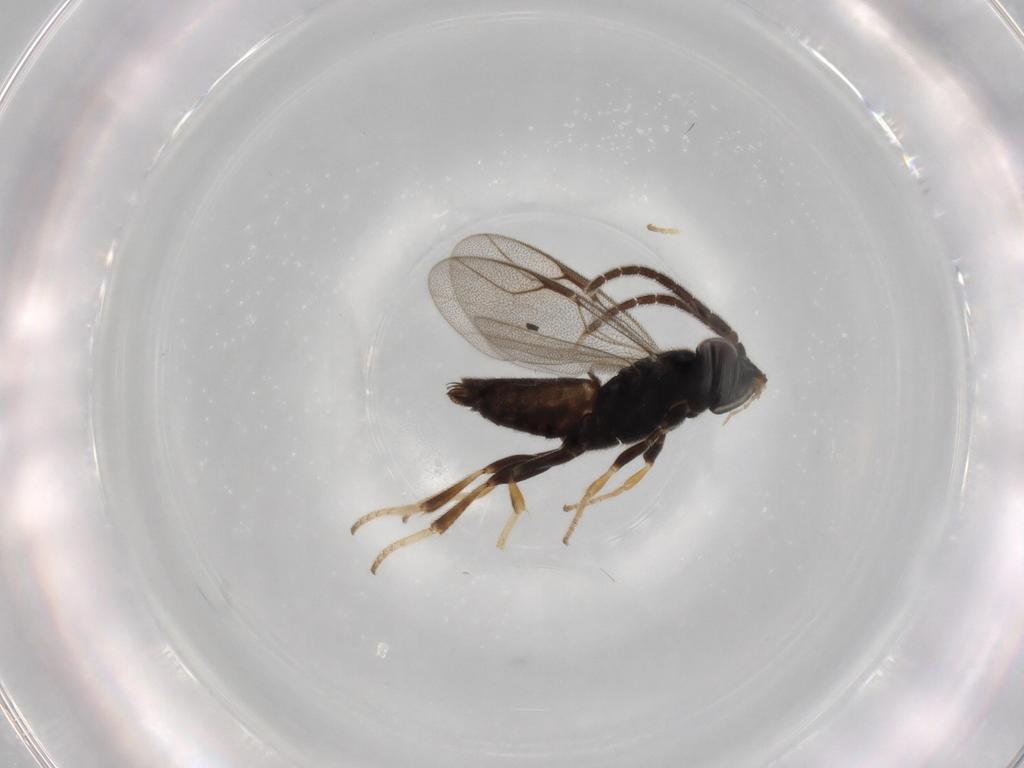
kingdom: Animalia
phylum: Arthropoda
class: Insecta
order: Hymenoptera
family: Dryinidae
